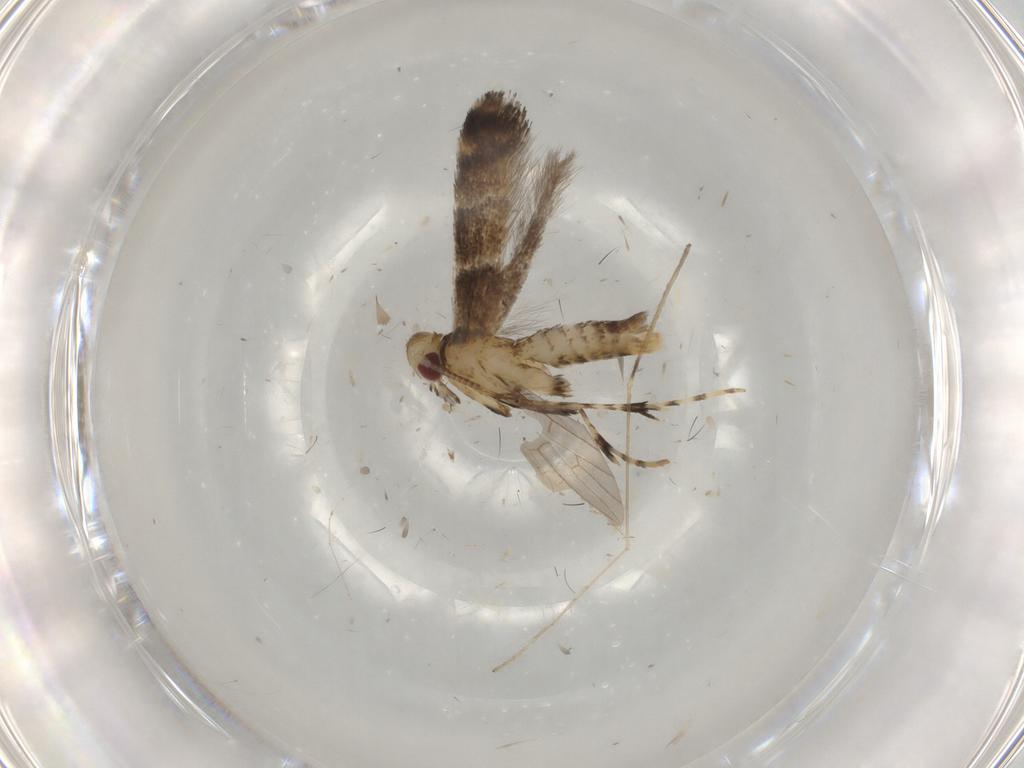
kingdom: Animalia
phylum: Arthropoda
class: Insecta
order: Lepidoptera
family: Gracillariidae
